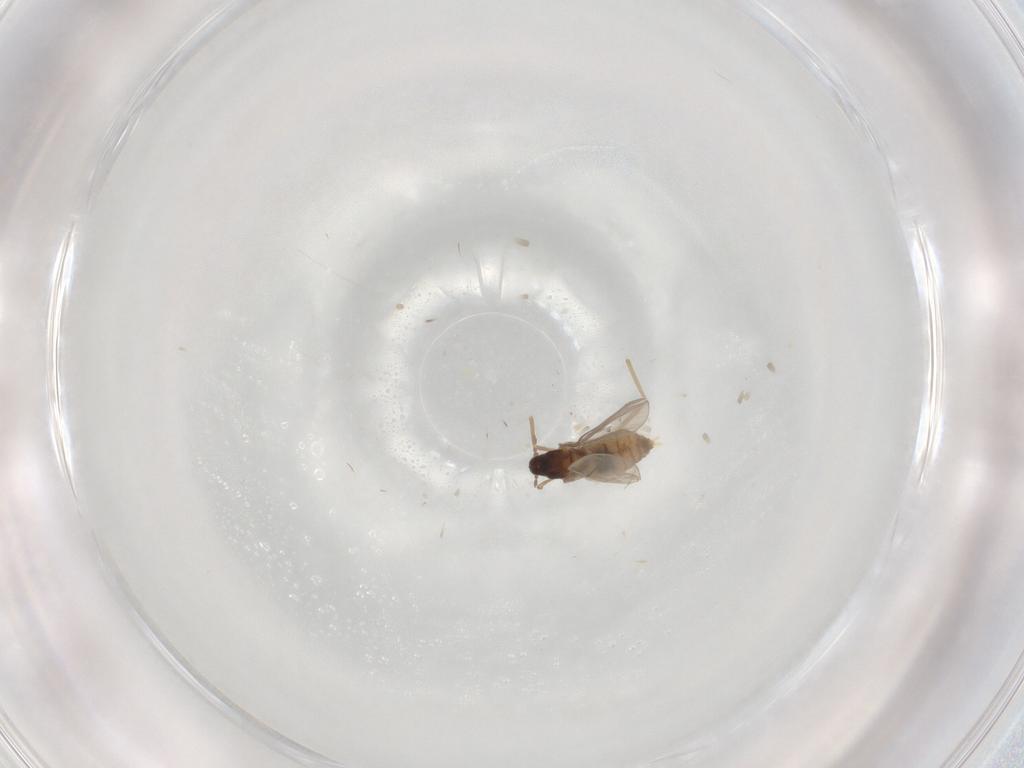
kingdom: Animalia
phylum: Arthropoda
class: Insecta
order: Diptera
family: Cecidomyiidae
